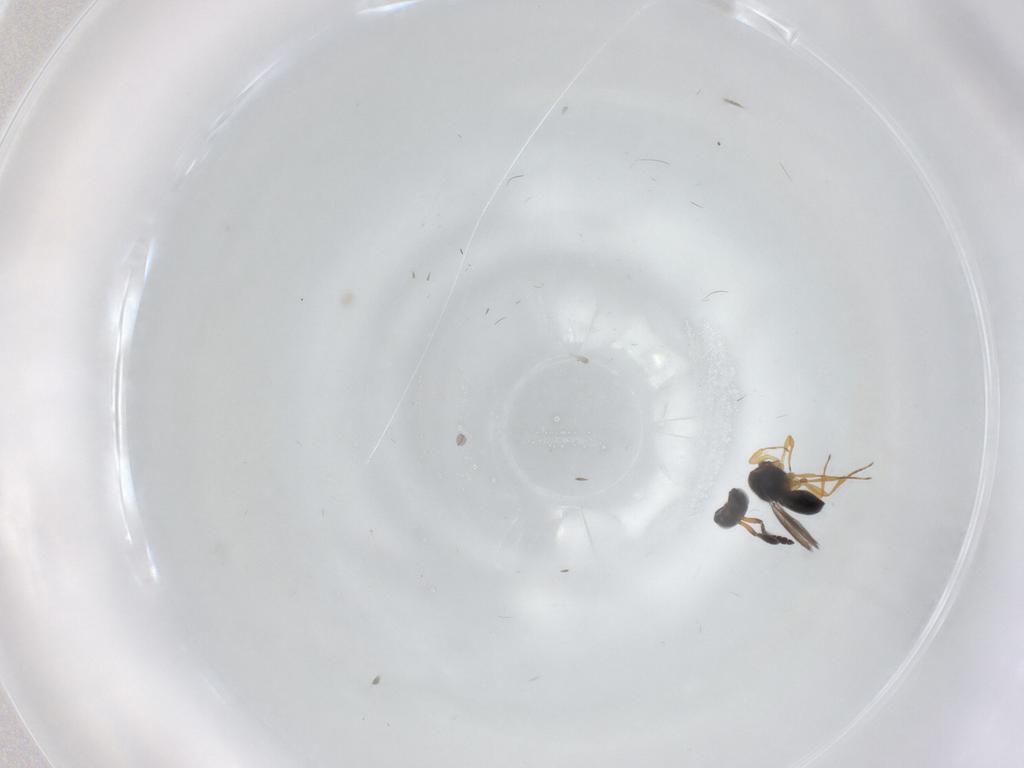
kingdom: Animalia
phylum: Arthropoda
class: Insecta
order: Hymenoptera
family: Scelionidae
